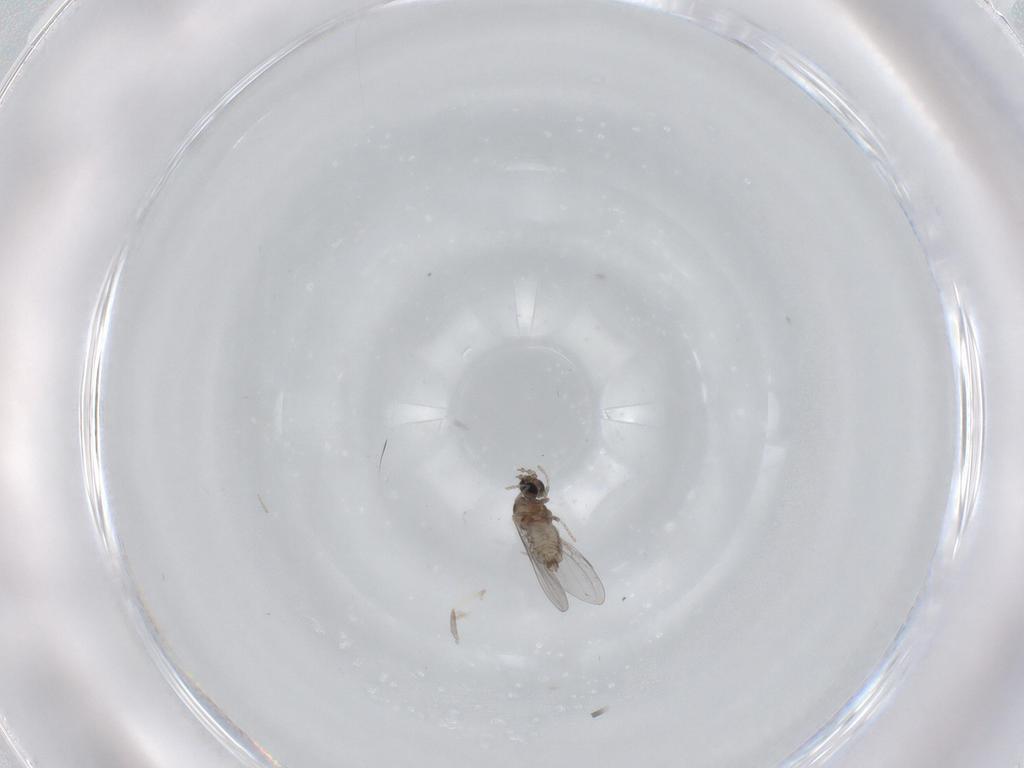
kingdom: Animalia
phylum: Arthropoda
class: Insecta
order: Diptera
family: Cecidomyiidae
